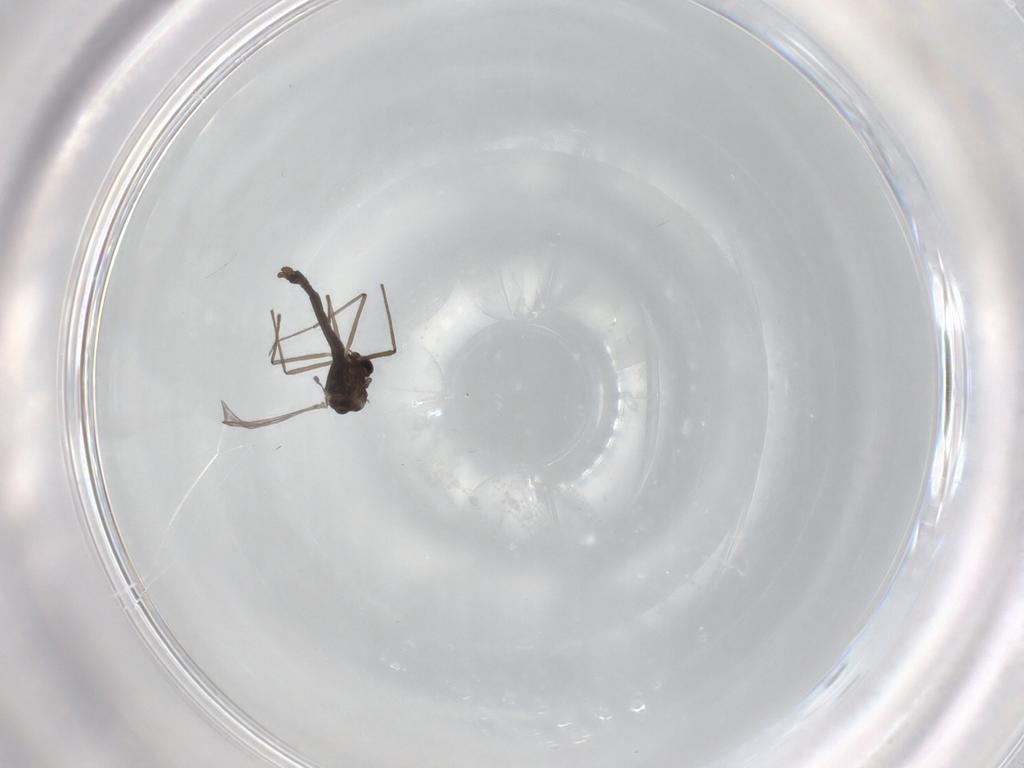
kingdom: Animalia
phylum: Arthropoda
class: Insecta
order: Diptera
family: Chironomidae
